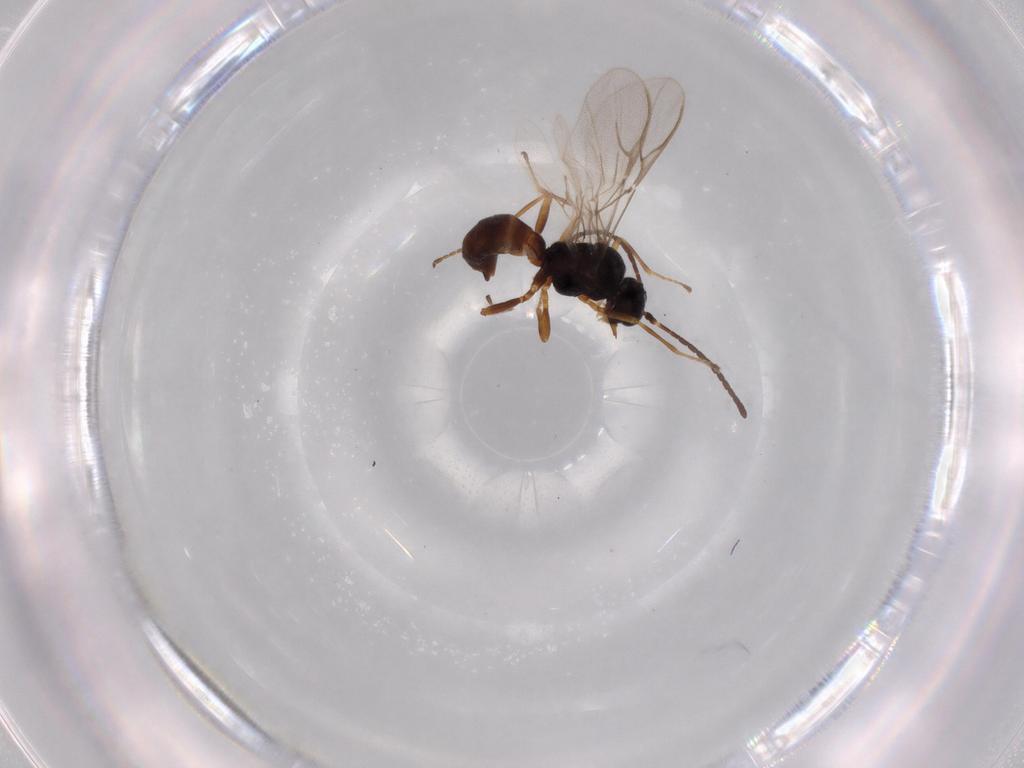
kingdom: Animalia
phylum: Arthropoda
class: Insecta
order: Hymenoptera
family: Braconidae
